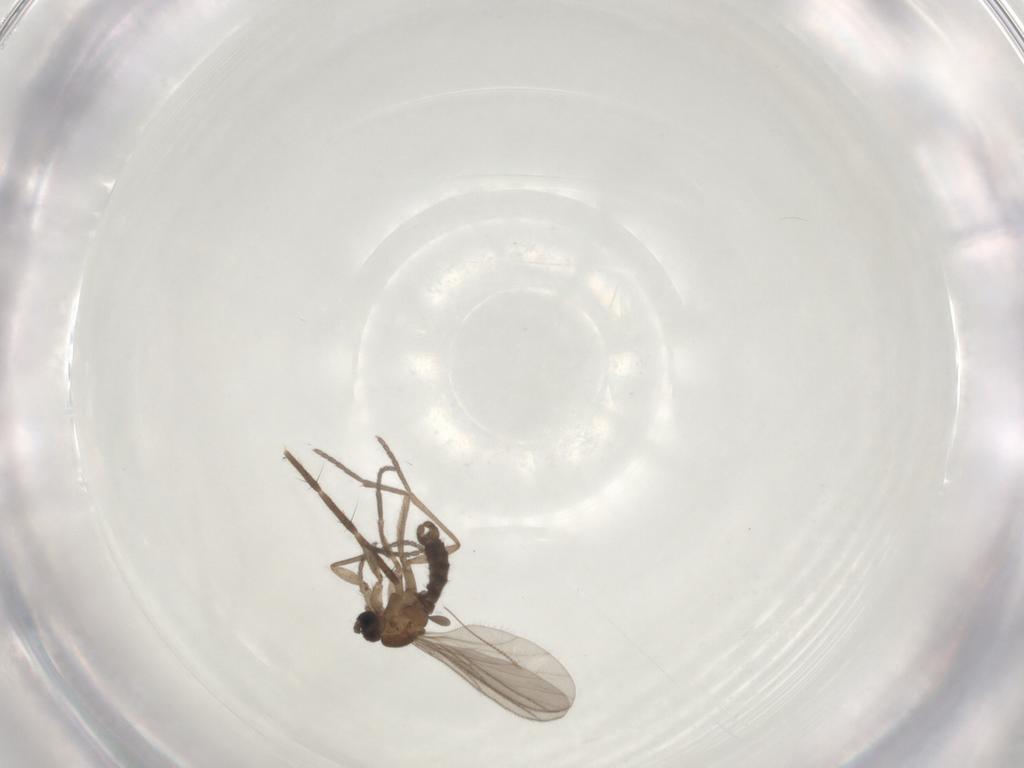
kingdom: Animalia
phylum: Arthropoda
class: Insecta
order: Diptera
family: Sciaridae
